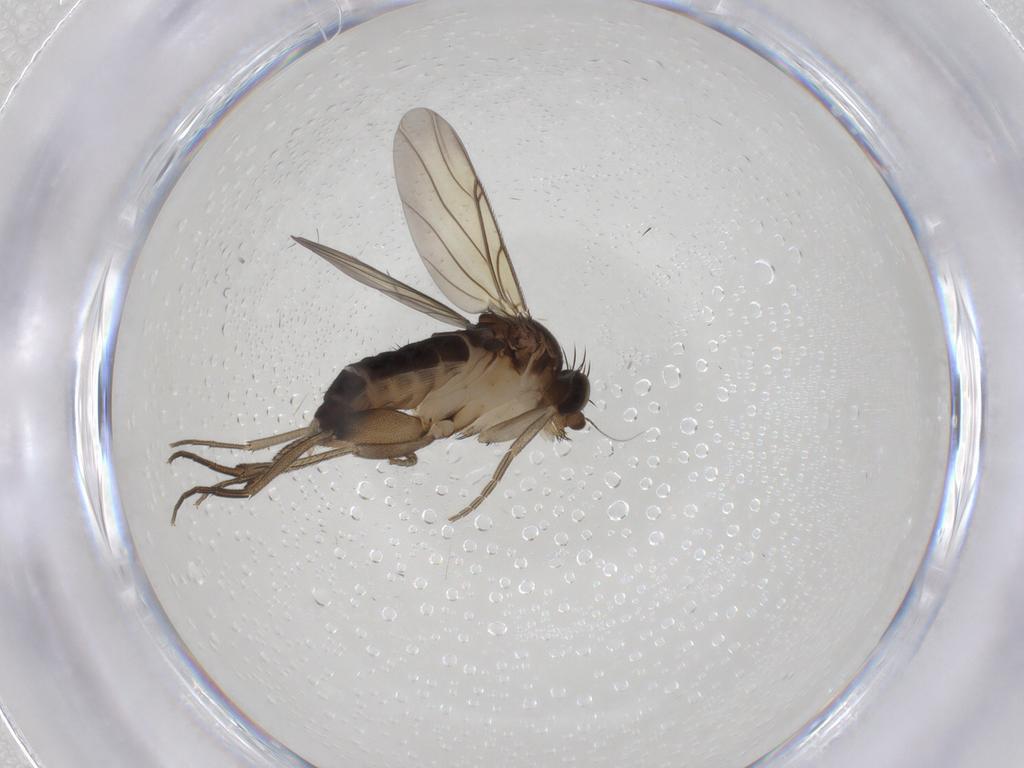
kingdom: Animalia
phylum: Arthropoda
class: Insecta
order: Diptera
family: Phoridae
